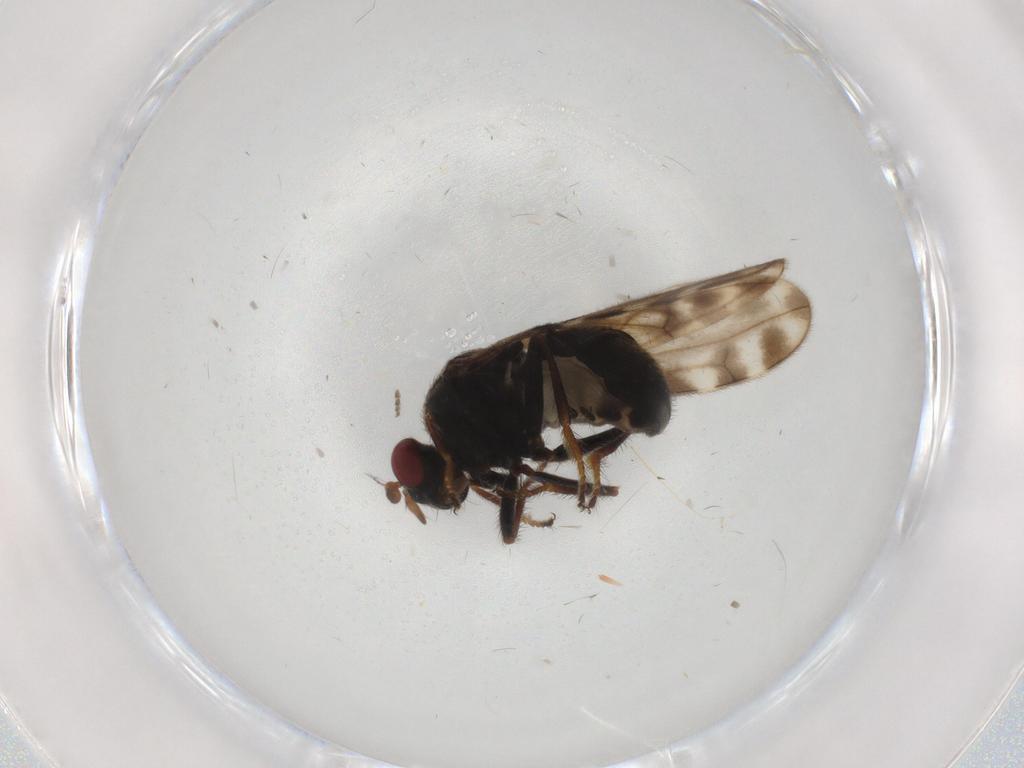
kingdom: Animalia
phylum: Arthropoda
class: Insecta
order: Diptera
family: Ephydridae
